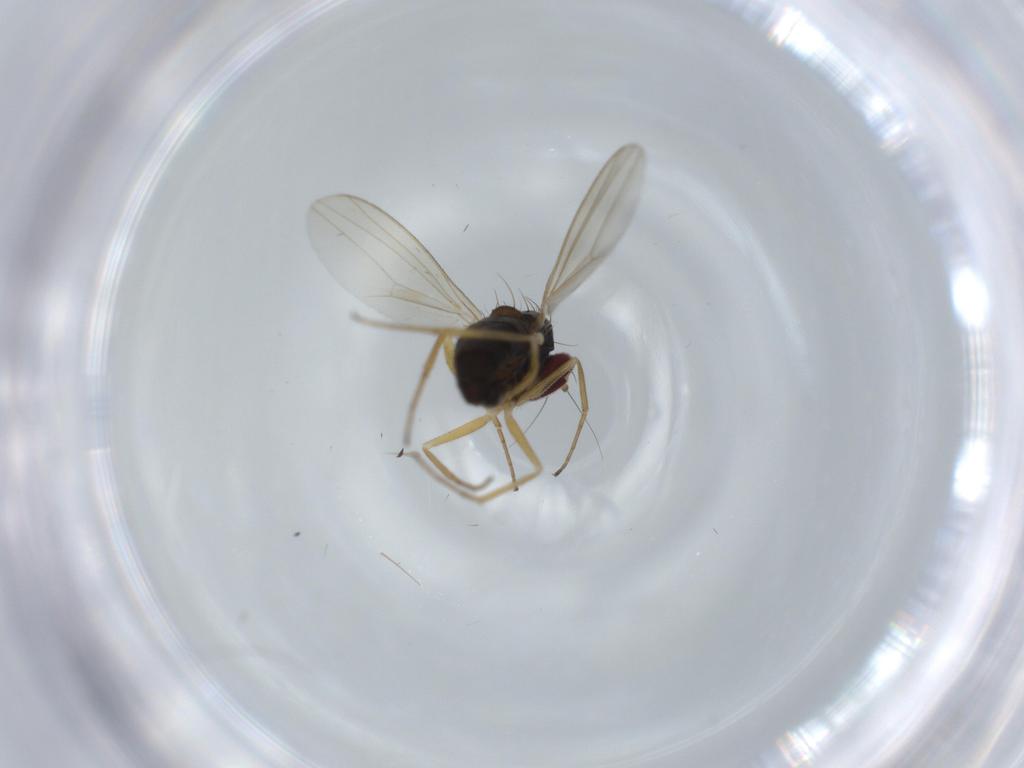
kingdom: Animalia
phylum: Arthropoda
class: Insecta
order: Diptera
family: Dolichopodidae
